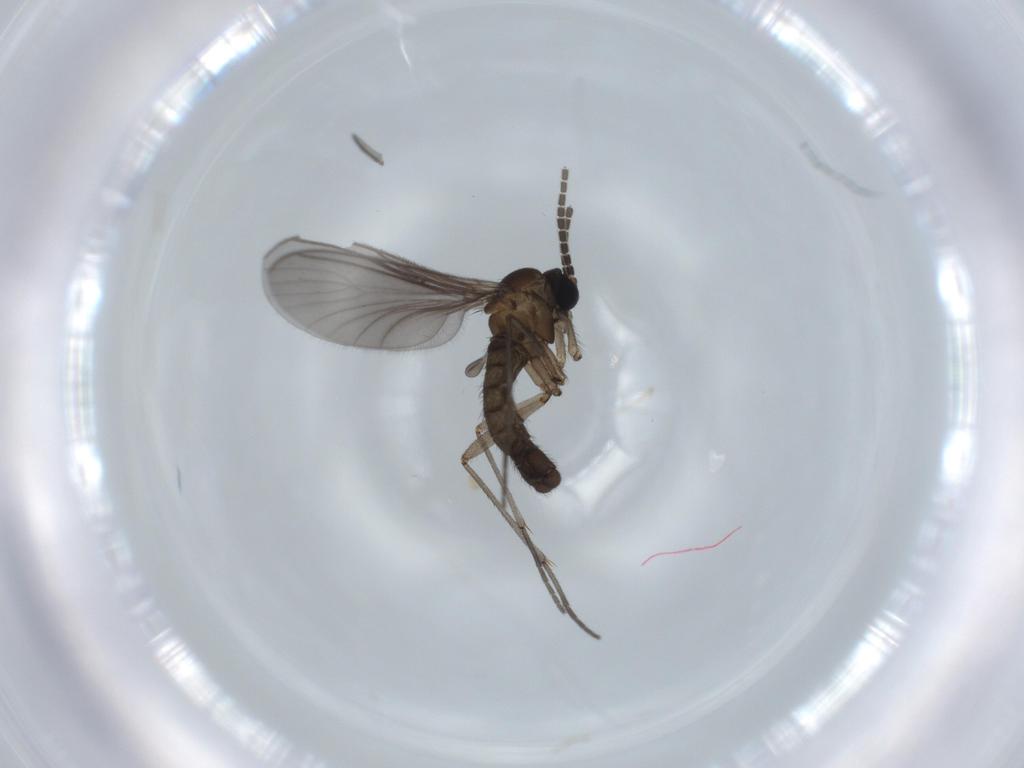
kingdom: Animalia
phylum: Arthropoda
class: Insecta
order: Diptera
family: Sciaridae
